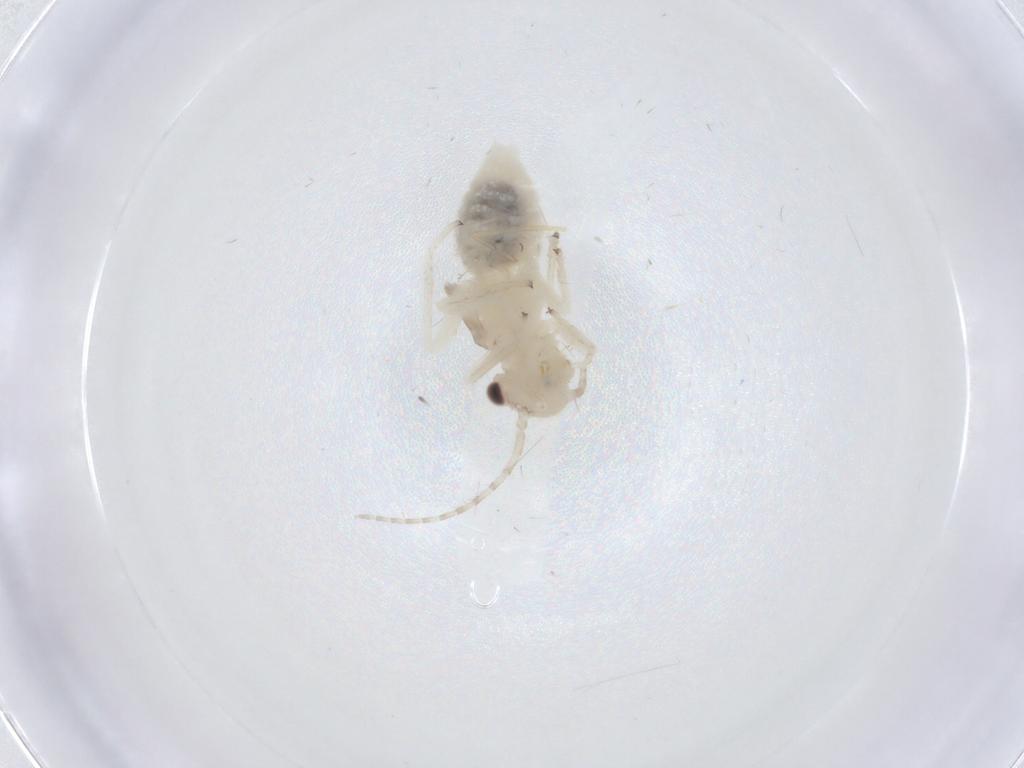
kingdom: Animalia
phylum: Arthropoda
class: Insecta
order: Psocodea
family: Amphipsocidae
